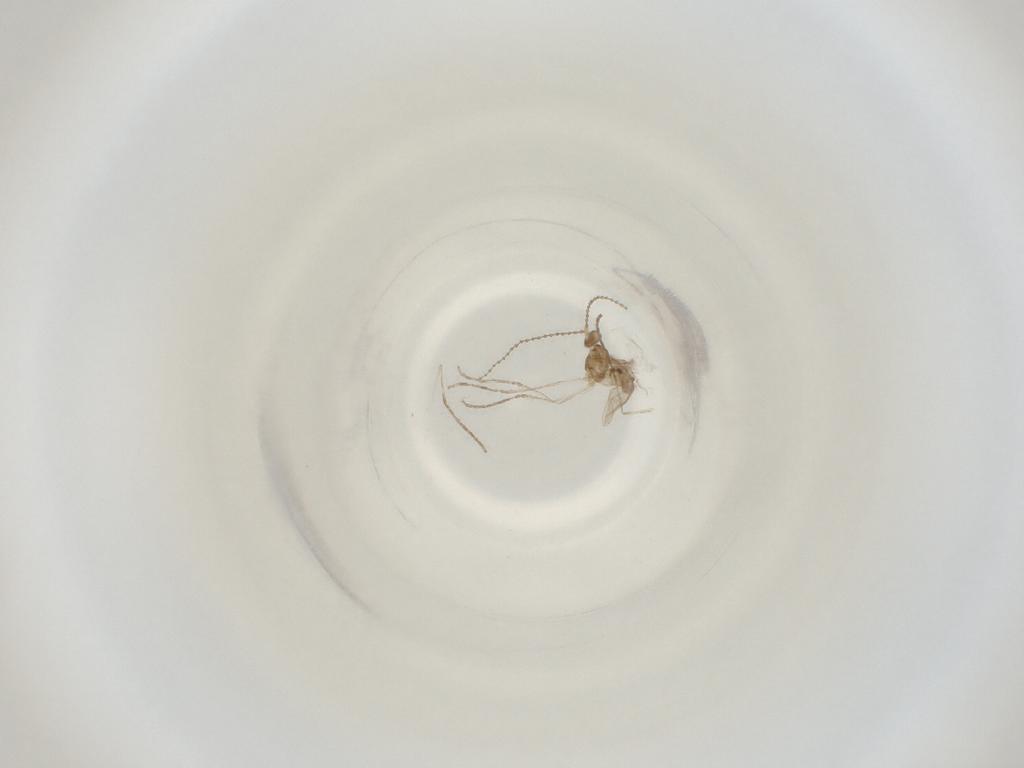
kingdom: Animalia
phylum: Arthropoda
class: Insecta
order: Diptera
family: Cecidomyiidae
